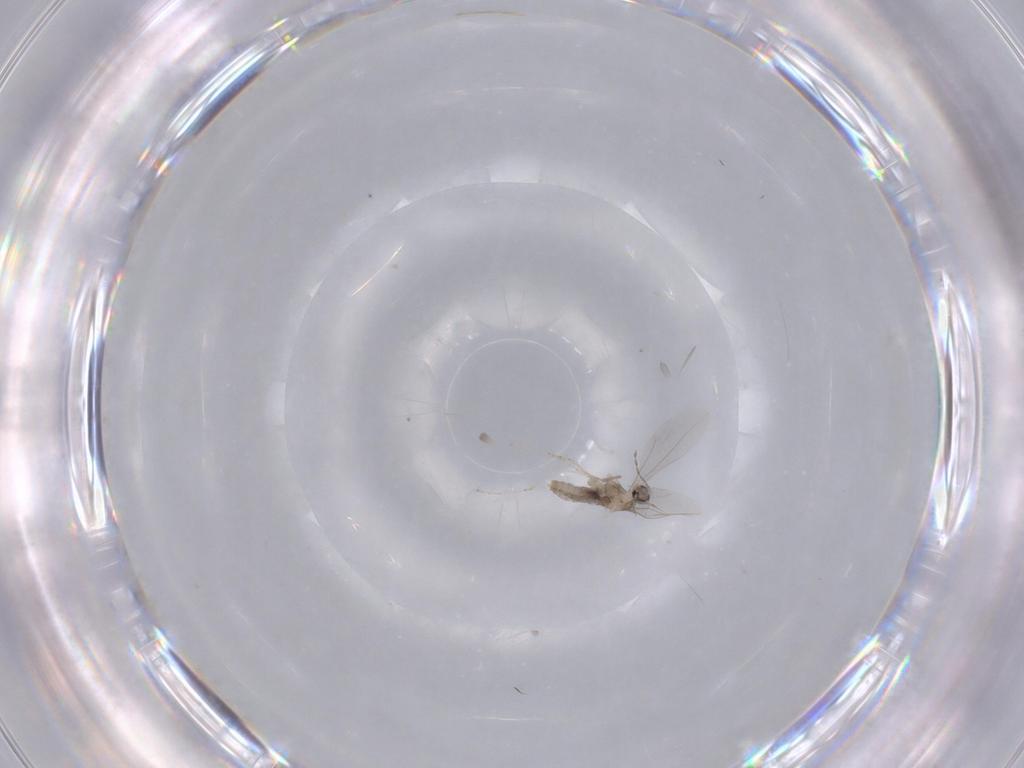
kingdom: Animalia
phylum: Arthropoda
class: Insecta
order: Diptera
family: Cecidomyiidae
